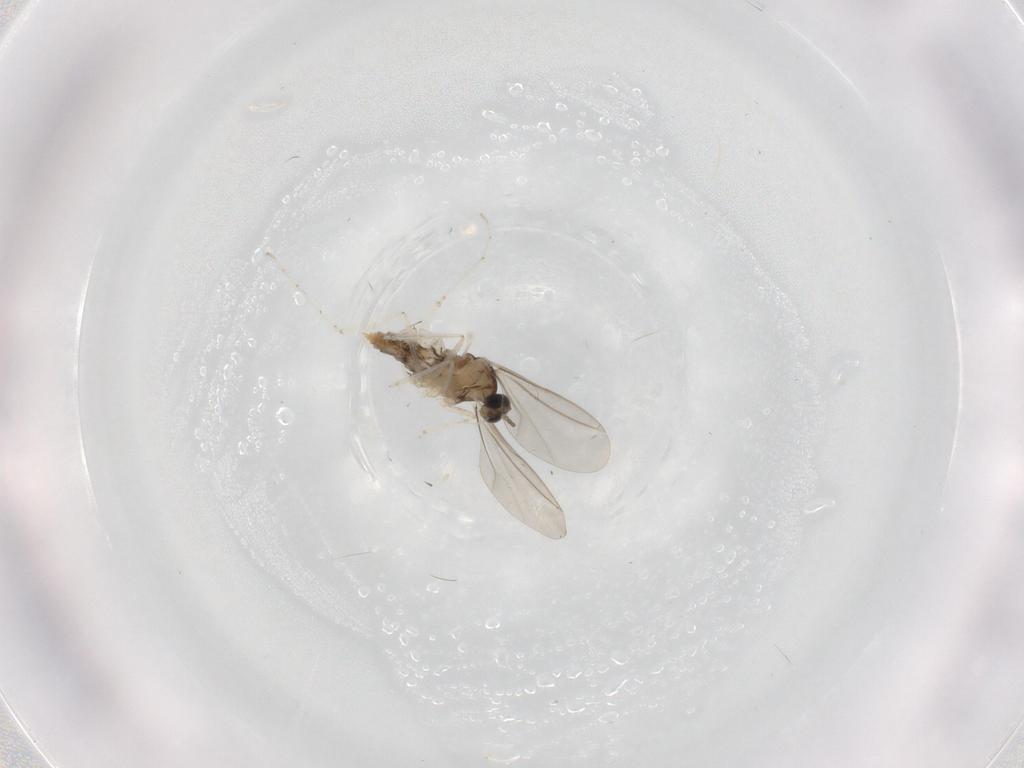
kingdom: Animalia
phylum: Arthropoda
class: Insecta
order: Diptera
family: Cecidomyiidae
